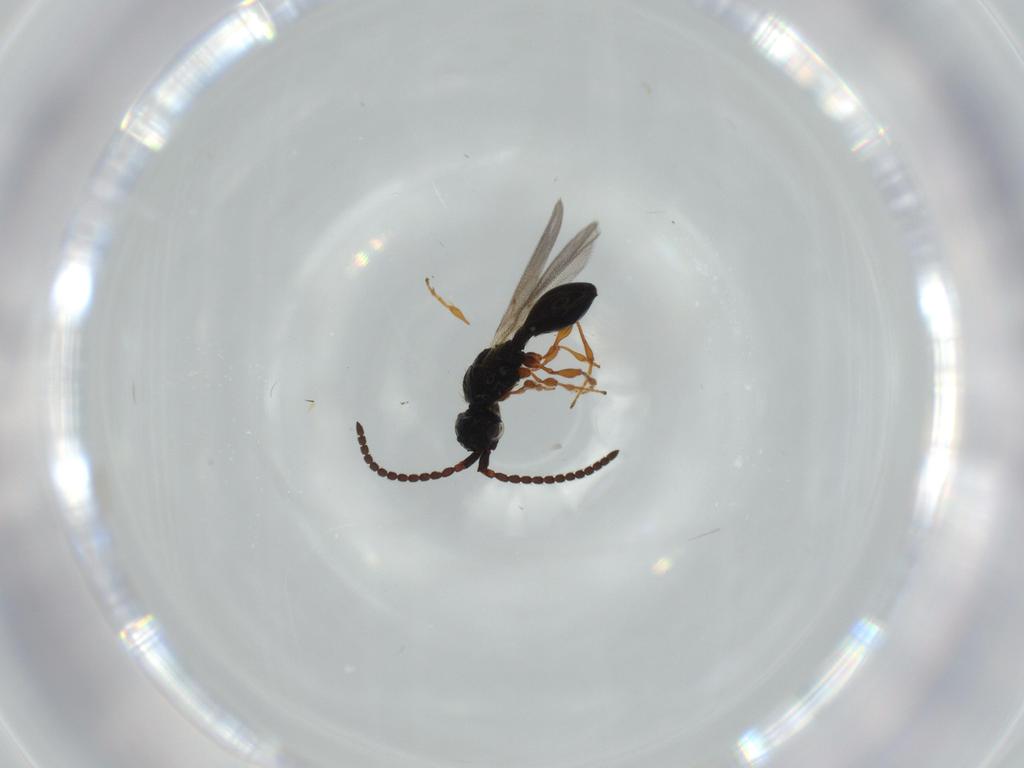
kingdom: Animalia
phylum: Arthropoda
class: Insecta
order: Hymenoptera
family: Diapriidae
